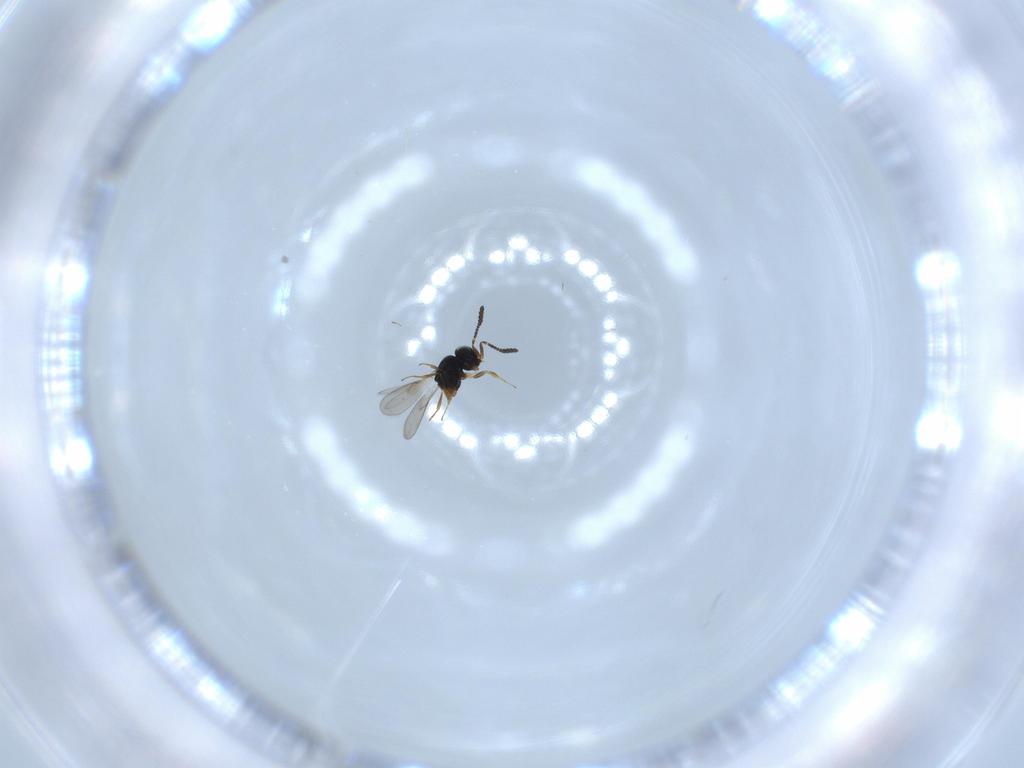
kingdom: Animalia
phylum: Arthropoda
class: Insecta
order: Hymenoptera
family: Scelionidae
